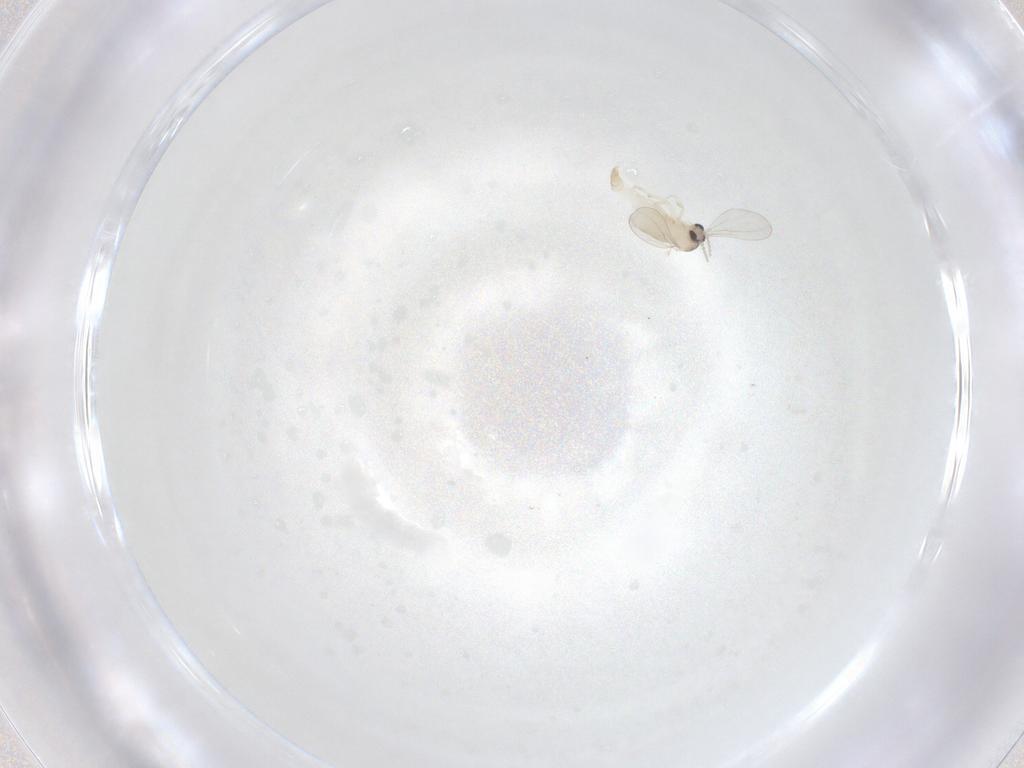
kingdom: Animalia
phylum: Arthropoda
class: Insecta
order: Diptera
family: Cecidomyiidae
